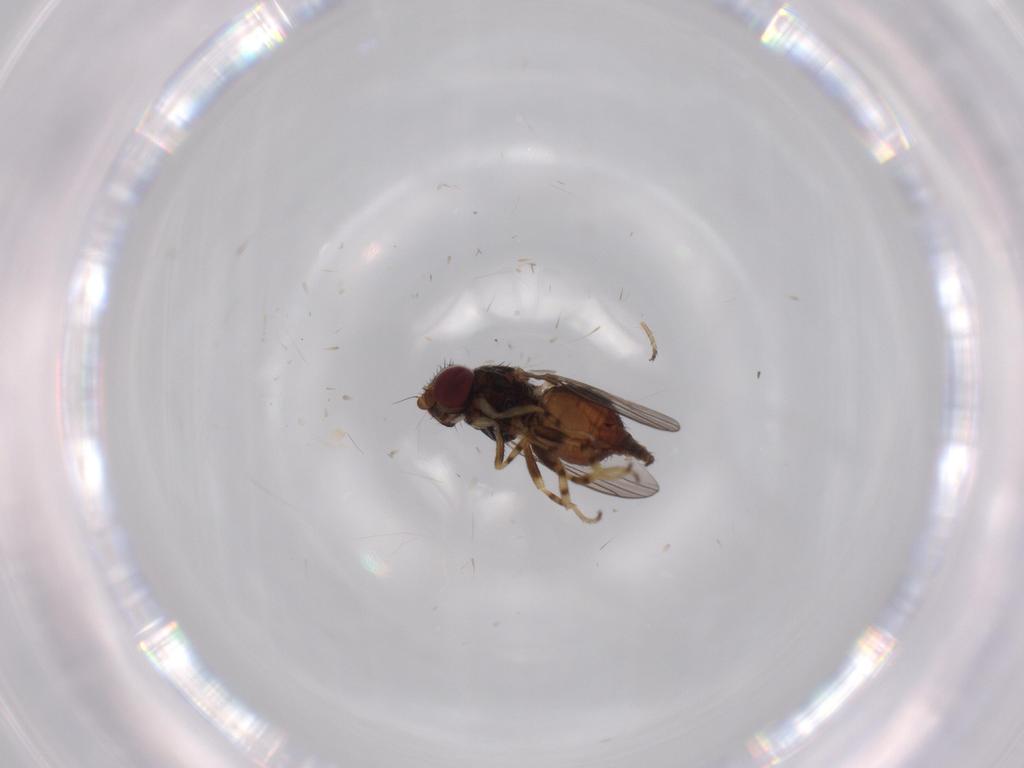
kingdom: Animalia
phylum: Arthropoda
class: Insecta
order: Diptera
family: Chloropidae
